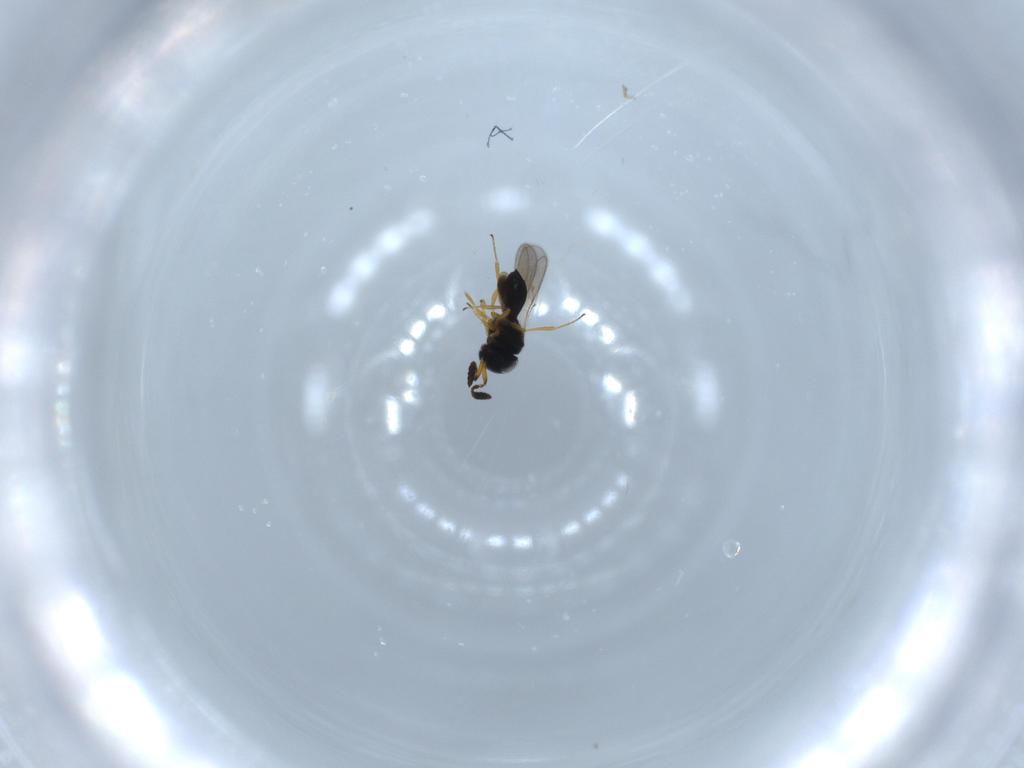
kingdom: Animalia
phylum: Arthropoda
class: Insecta
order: Hymenoptera
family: Scelionidae
